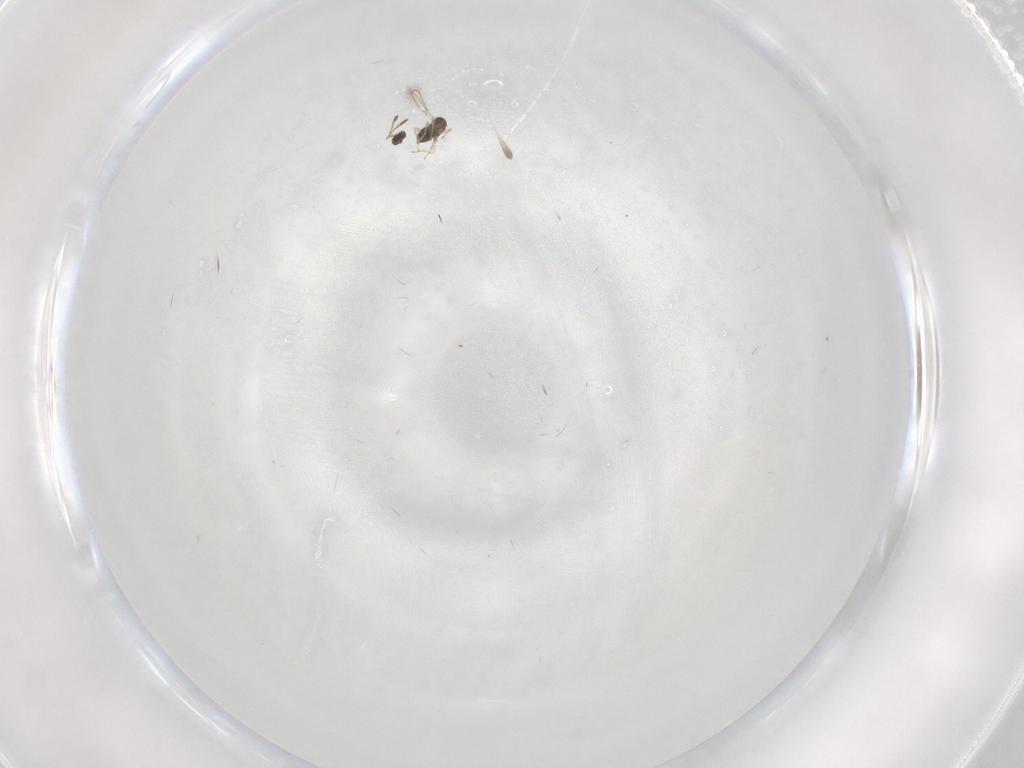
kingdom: Animalia
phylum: Arthropoda
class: Insecta
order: Hymenoptera
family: Mymaridae
